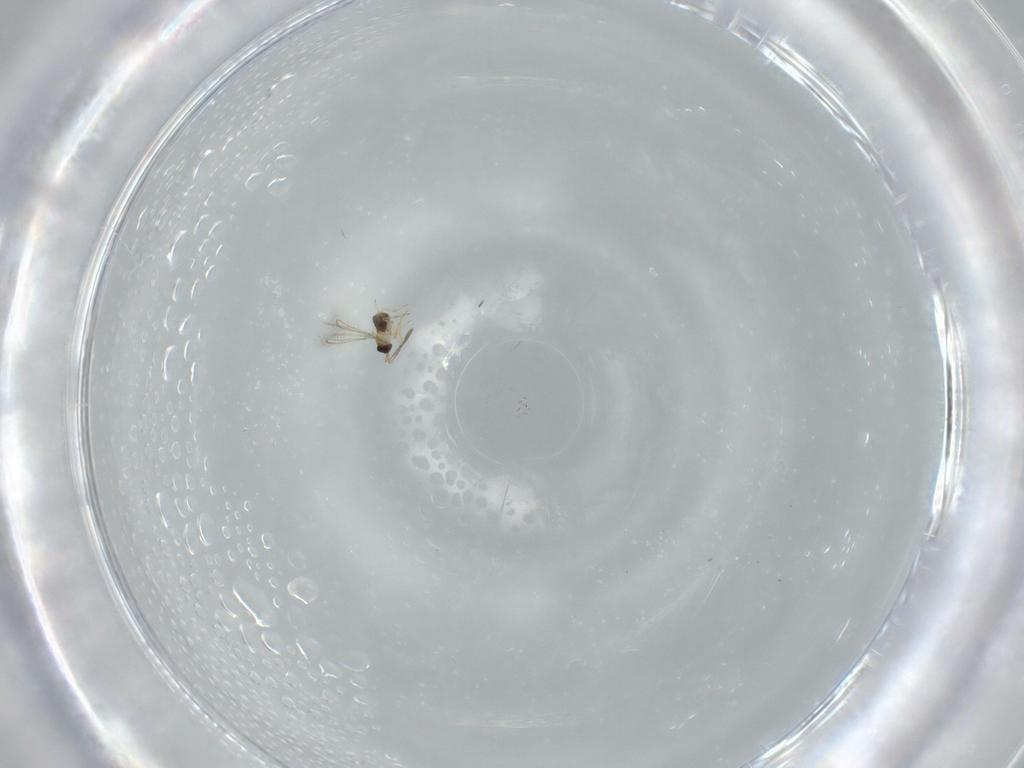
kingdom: Animalia
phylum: Arthropoda
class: Insecta
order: Hymenoptera
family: Mymaridae
